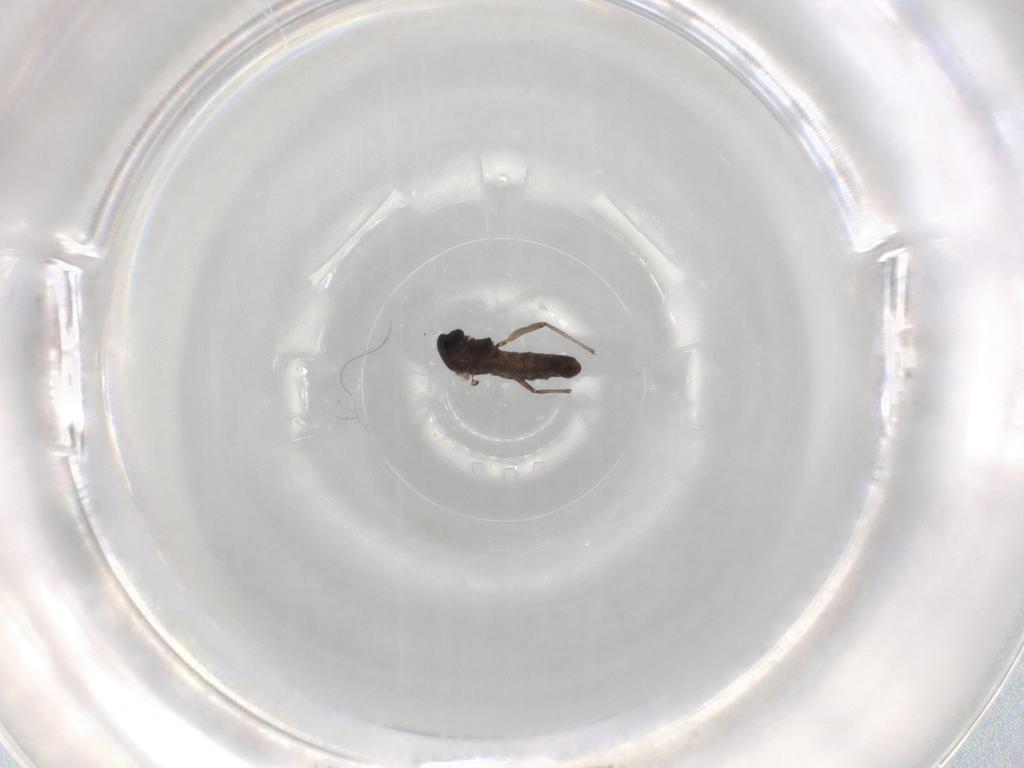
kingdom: Animalia
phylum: Arthropoda
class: Insecta
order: Diptera
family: Chironomidae
